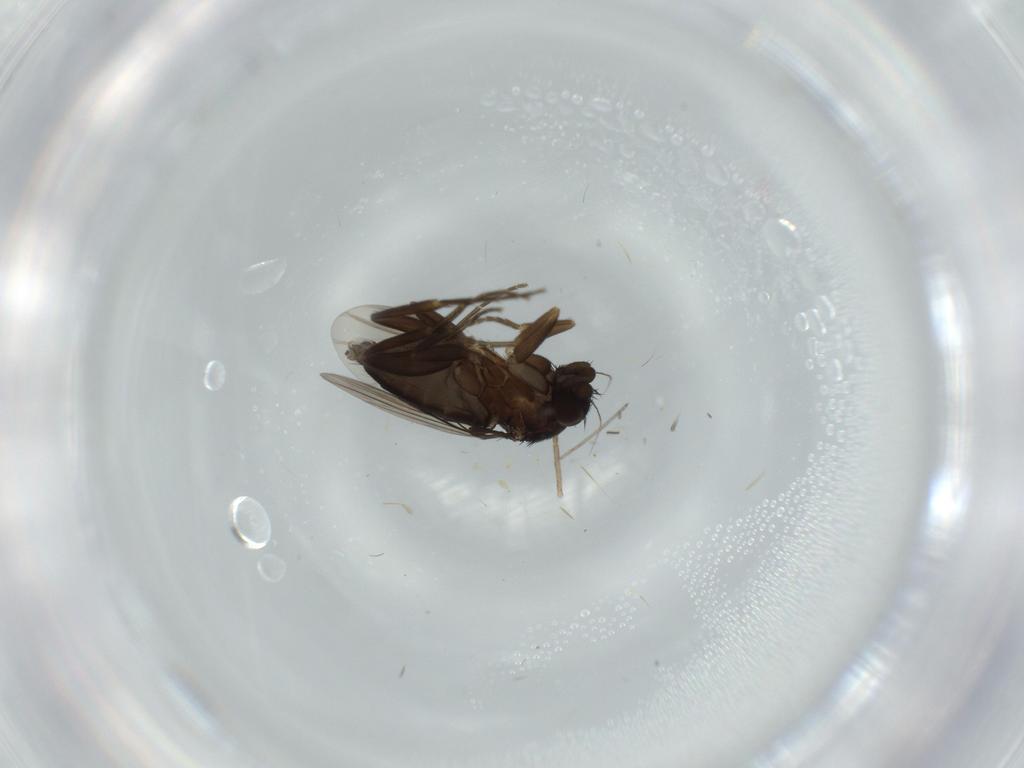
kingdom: Animalia
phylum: Arthropoda
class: Insecta
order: Diptera
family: Phoridae
